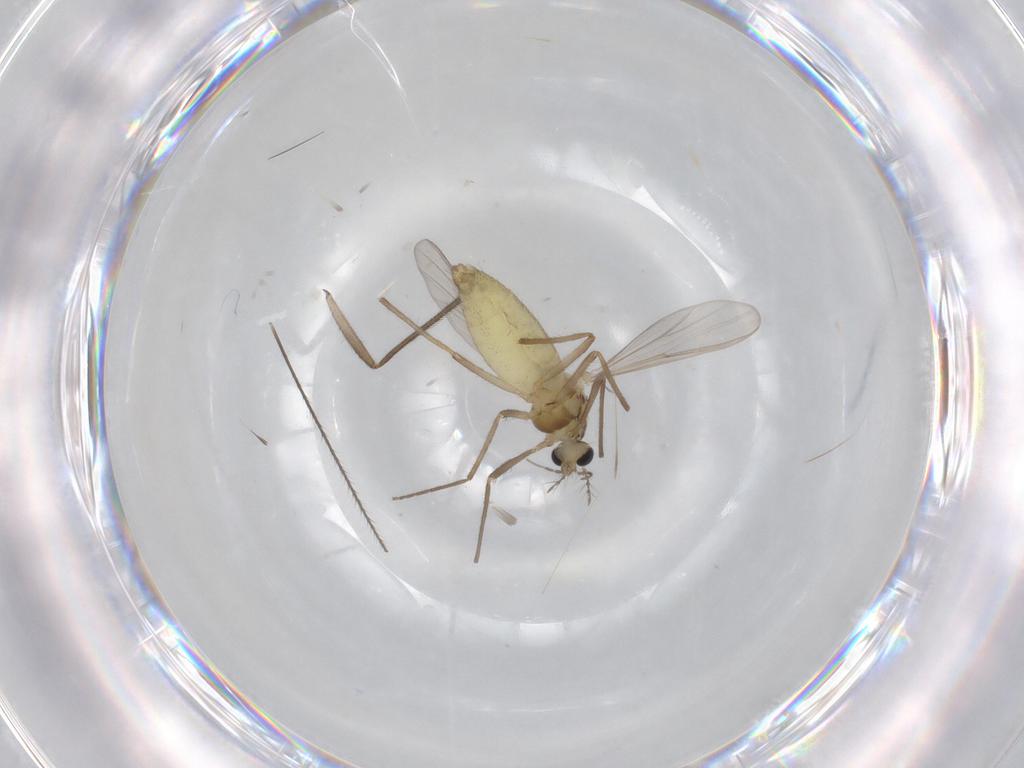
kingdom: Animalia
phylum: Arthropoda
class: Insecta
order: Diptera
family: Chironomidae
